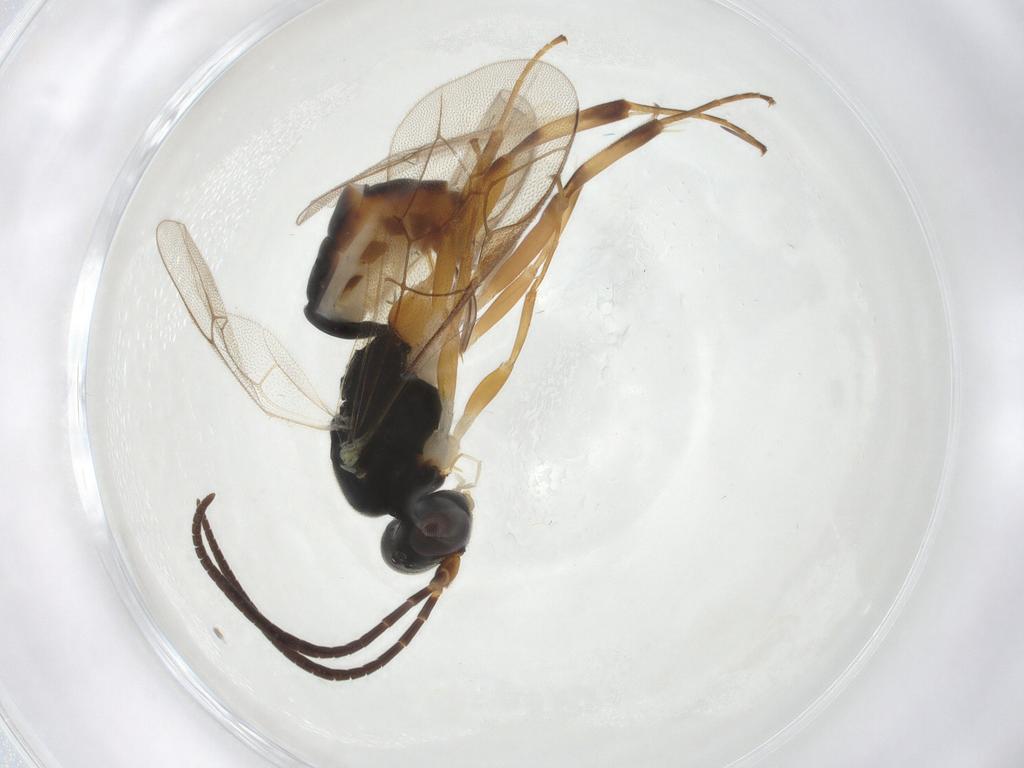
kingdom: Animalia
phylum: Arthropoda
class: Insecta
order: Hymenoptera
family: Ichneumonidae
